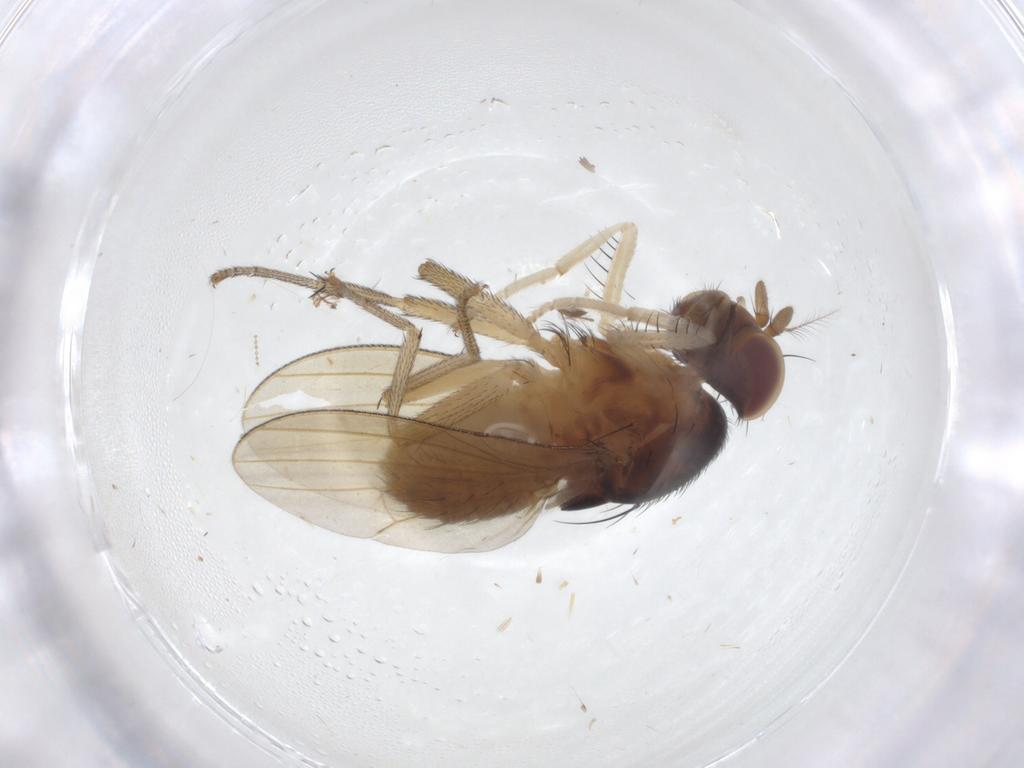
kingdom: Animalia
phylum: Arthropoda
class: Insecta
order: Diptera
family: Lauxaniidae
